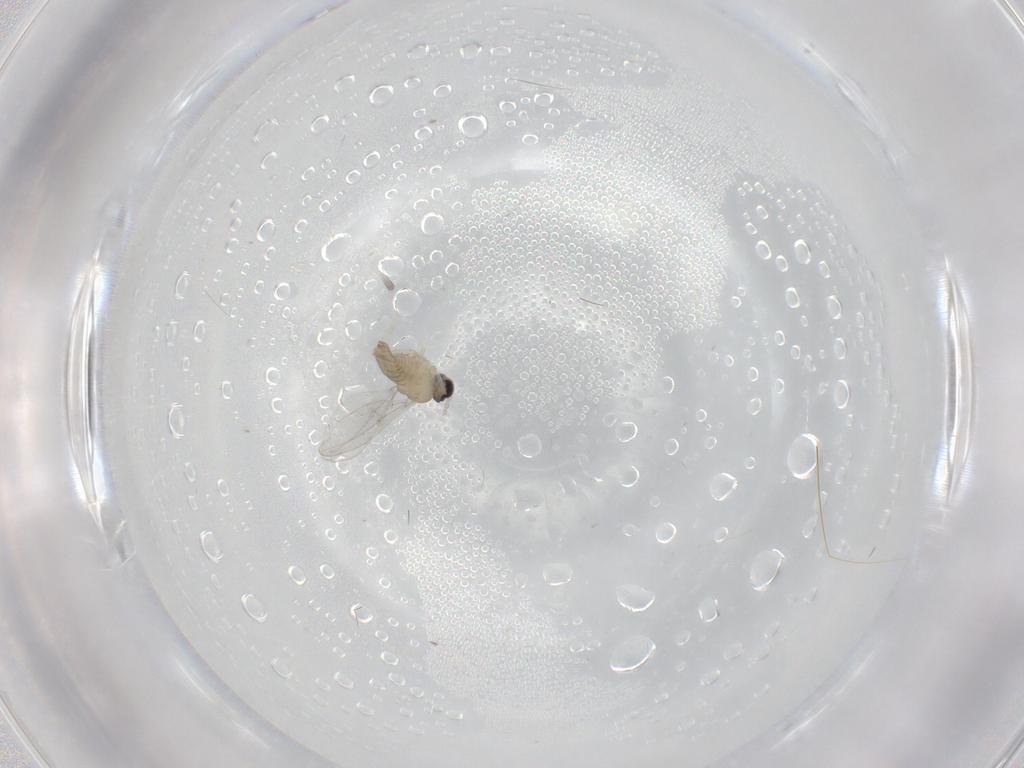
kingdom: Animalia
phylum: Arthropoda
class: Insecta
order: Diptera
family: Cecidomyiidae
